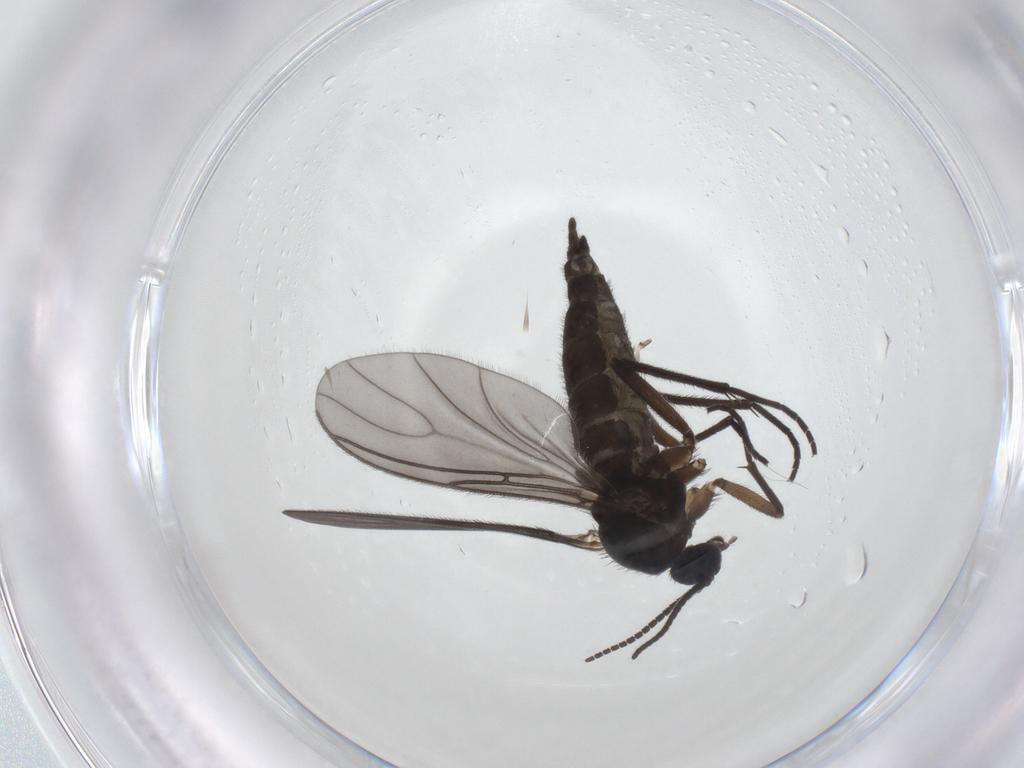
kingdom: Animalia
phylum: Arthropoda
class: Insecta
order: Diptera
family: Sciaridae
